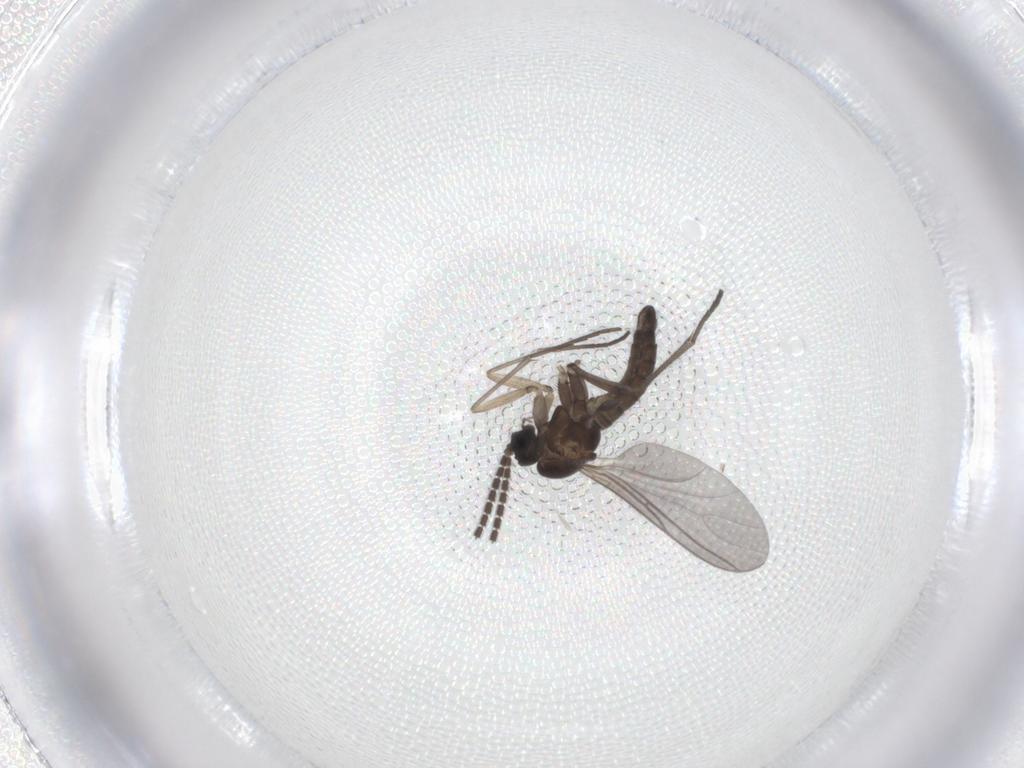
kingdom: Animalia
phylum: Arthropoda
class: Insecta
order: Diptera
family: Sciaridae
